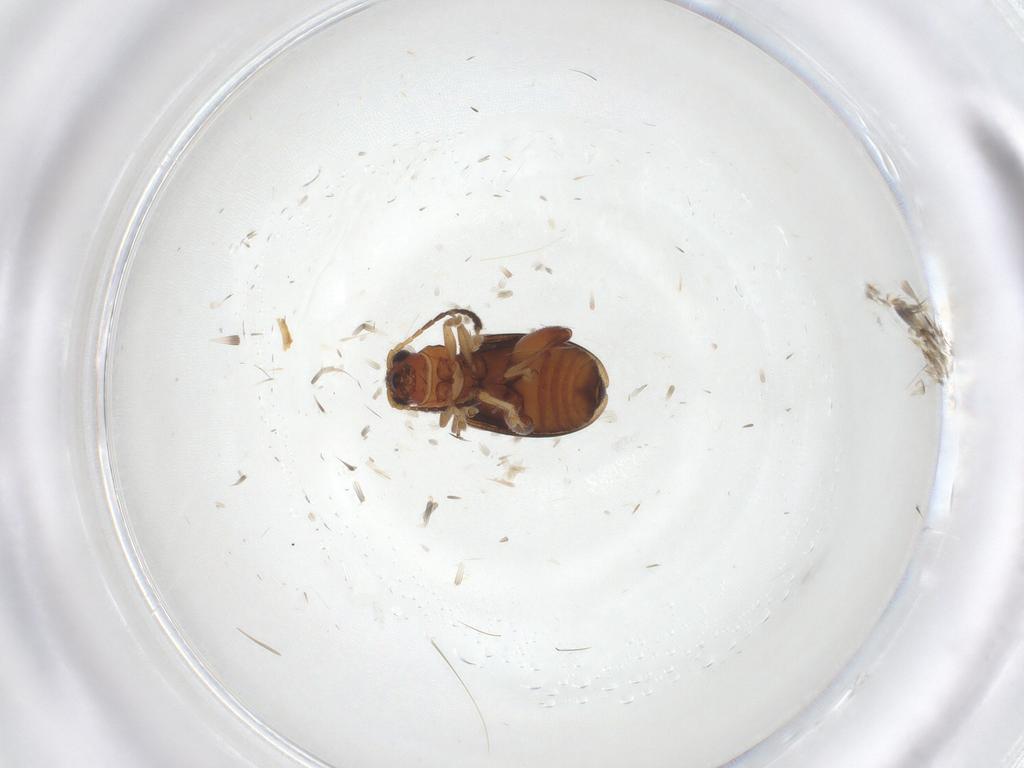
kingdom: Animalia
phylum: Arthropoda
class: Insecta
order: Coleoptera
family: Chrysomelidae
